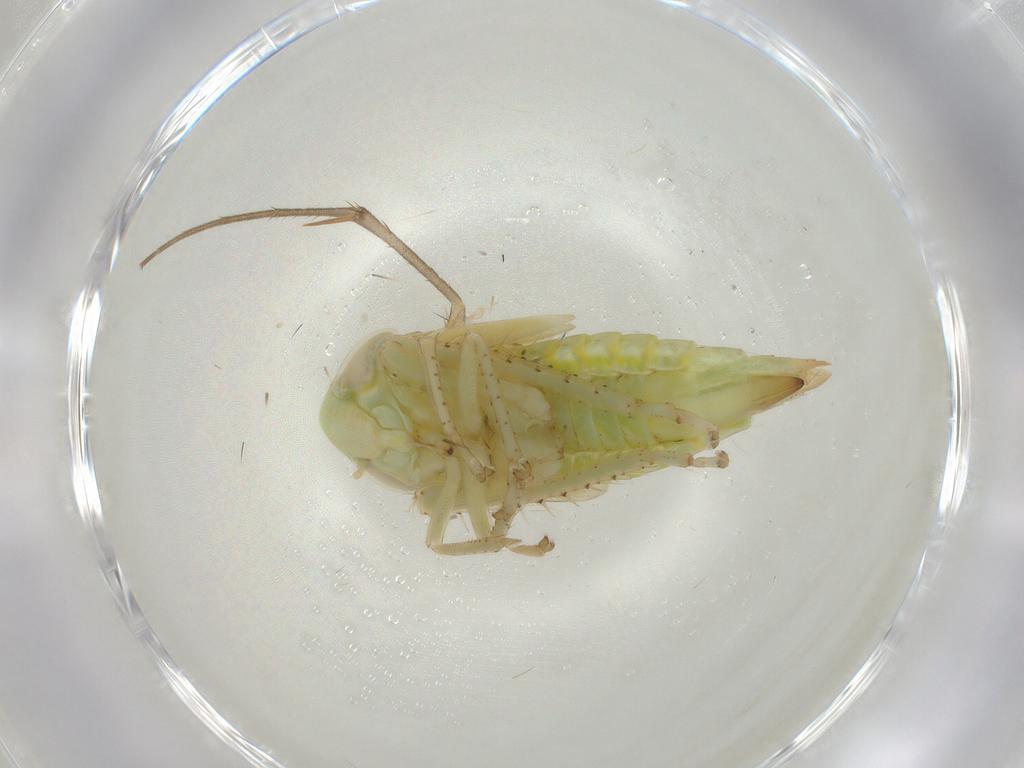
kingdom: Animalia
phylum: Arthropoda
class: Insecta
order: Hemiptera
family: Cicadellidae
